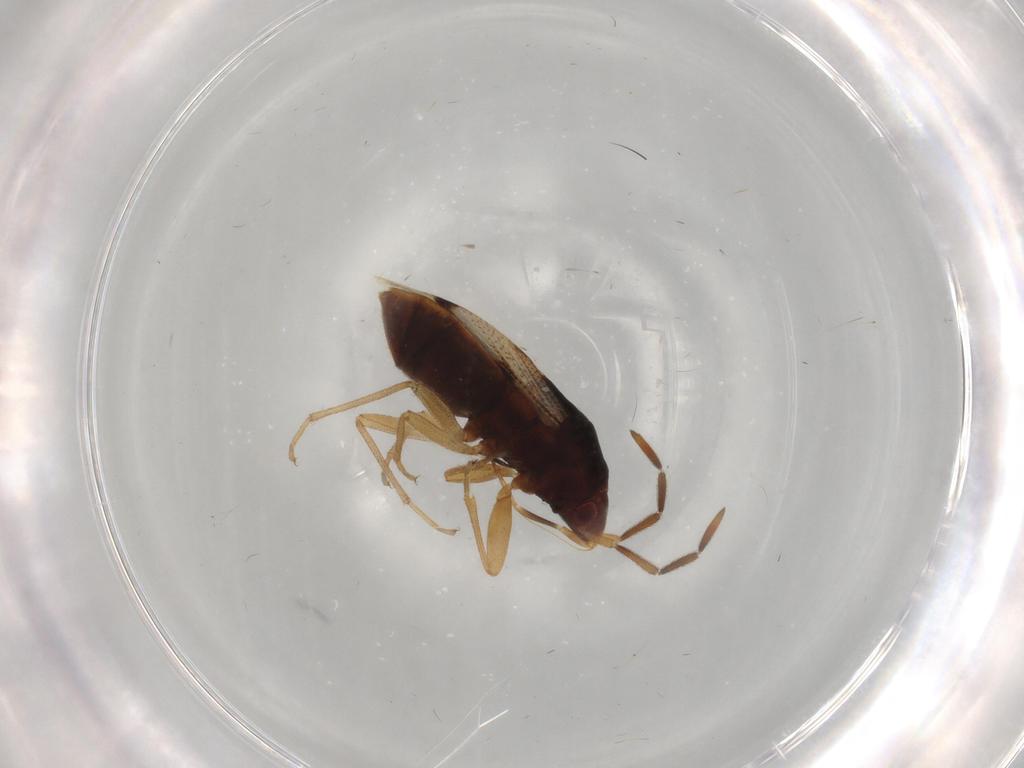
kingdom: Animalia
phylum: Arthropoda
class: Insecta
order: Hemiptera
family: Rhyparochromidae
